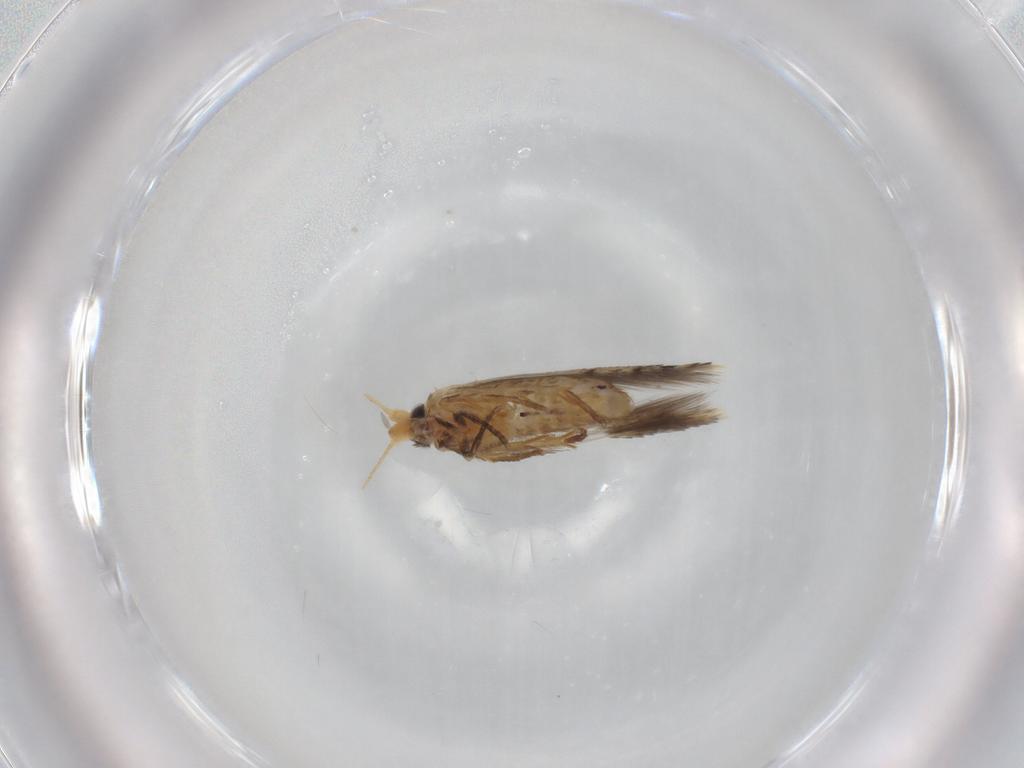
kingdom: Animalia
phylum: Arthropoda
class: Insecta
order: Lepidoptera
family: Nepticulidae
